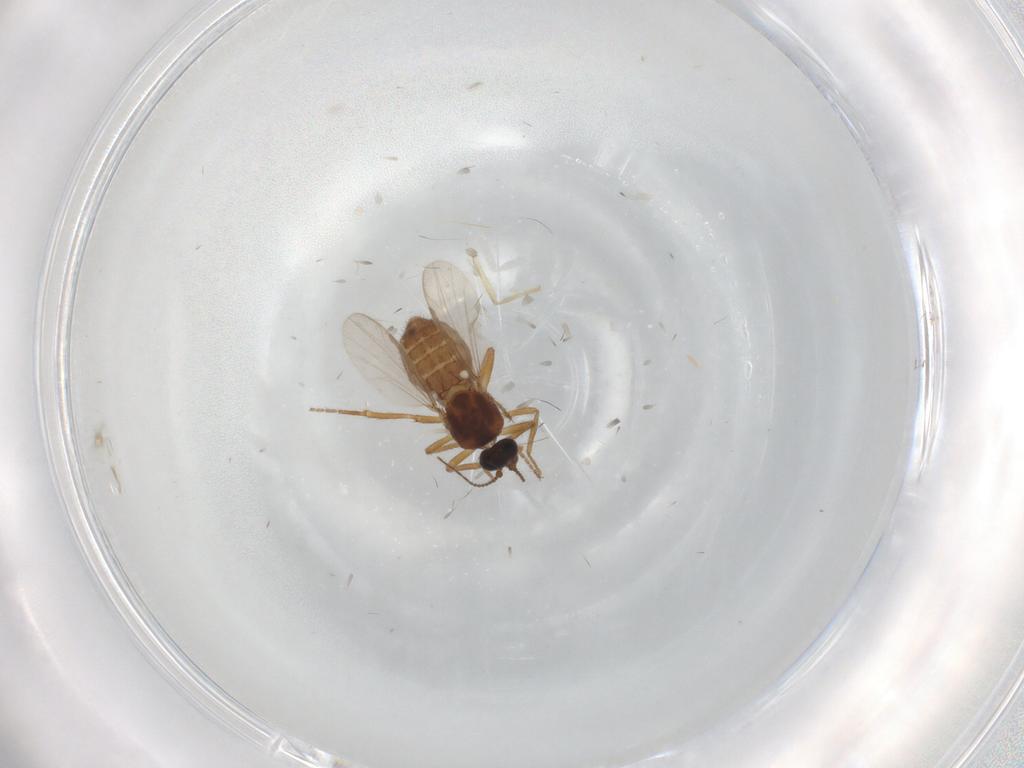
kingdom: Animalia
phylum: Arthropoda
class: Insecta
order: Diptera
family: Ceratopogonidae
